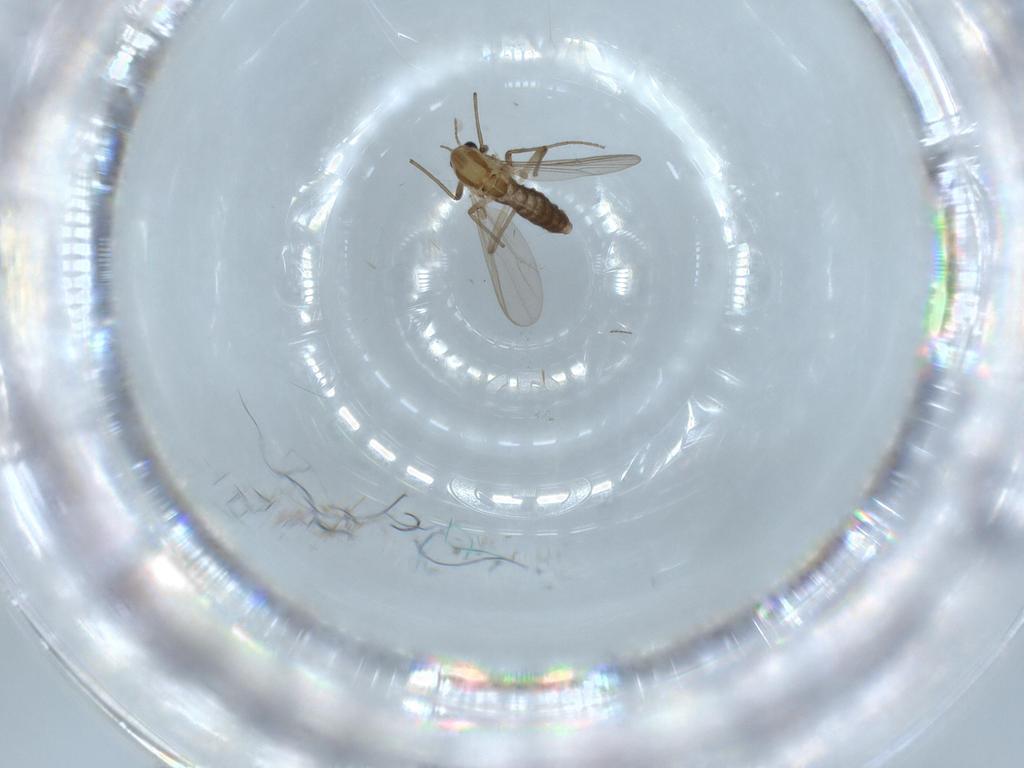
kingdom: Animalia
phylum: Arthropoda
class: Insecta
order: Diptera
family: Chironomidae
